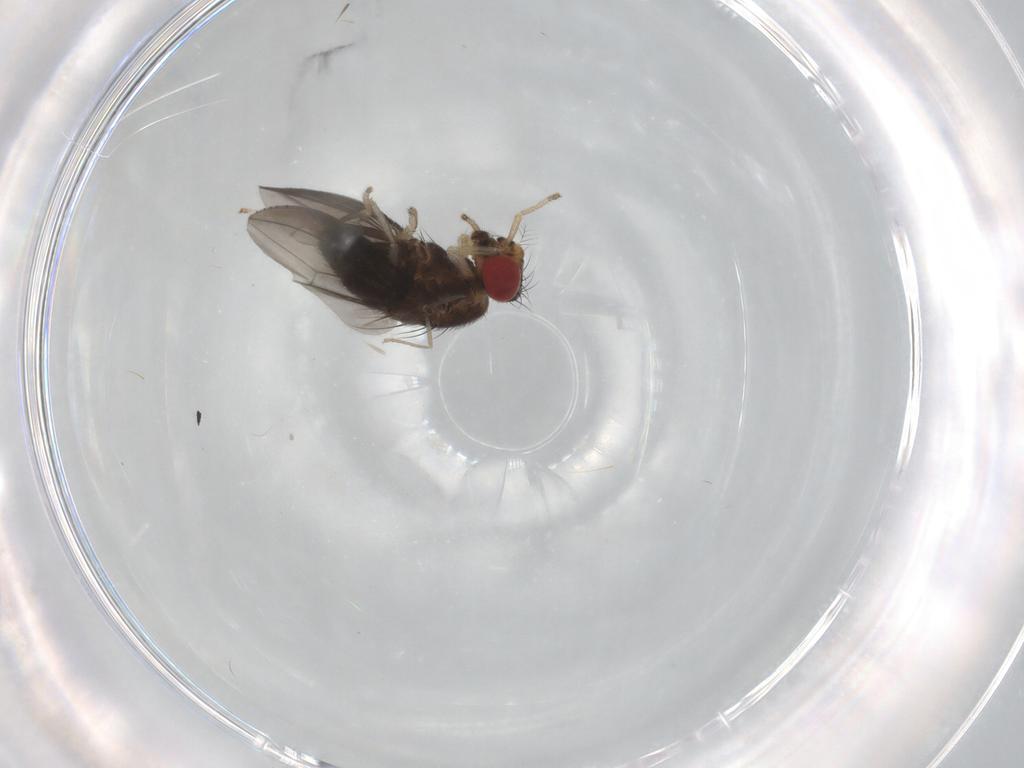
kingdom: Animalia
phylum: Arthropoda
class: Insecta
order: Diptera
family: Drosophilidae
